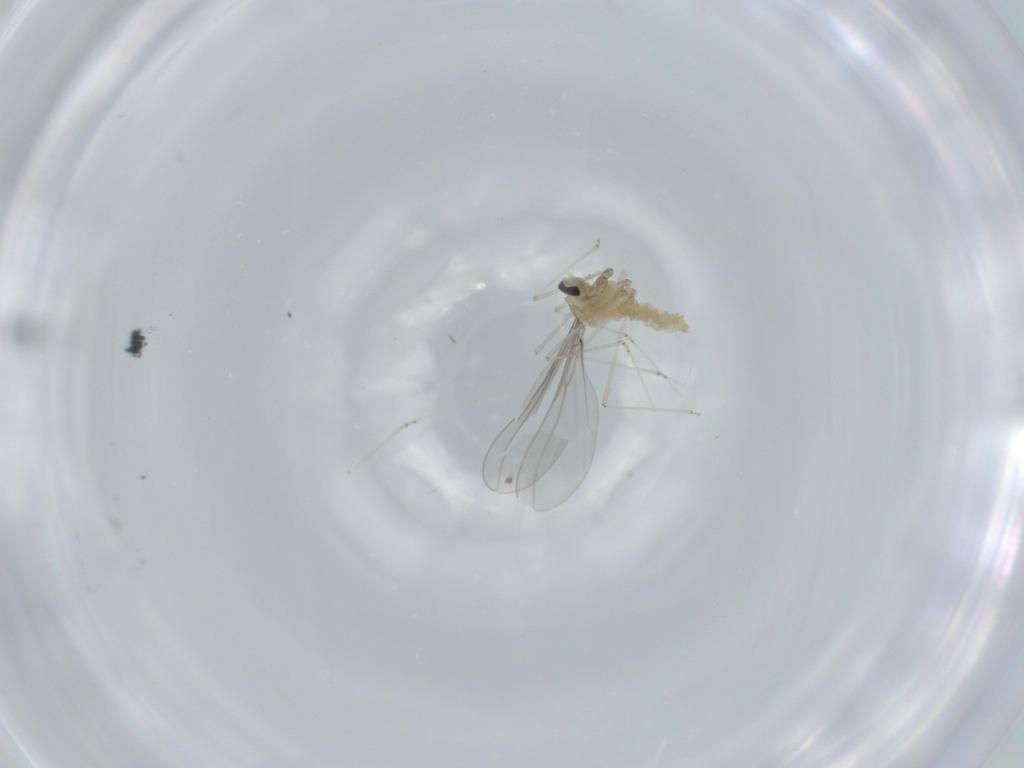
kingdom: Animalia
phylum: Arthropoda
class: Insecta
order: Diptera
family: Cecidomyiidae
